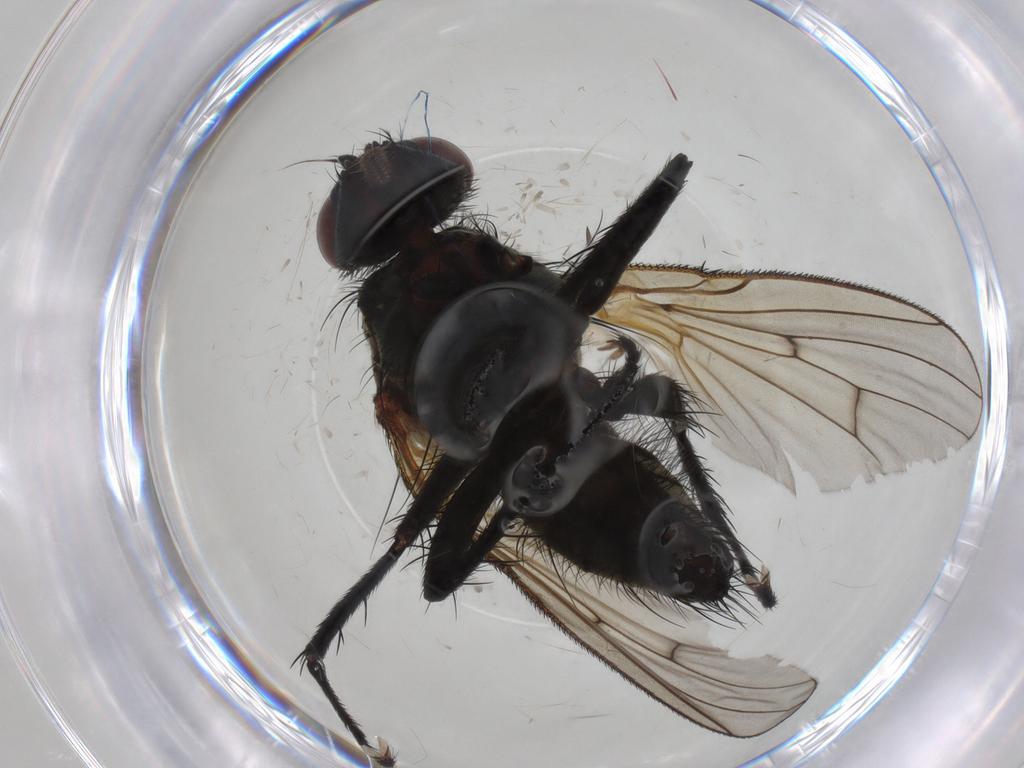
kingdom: Animalia
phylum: Arthropoda
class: Insecta
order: Diptera
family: Anthomyiidae
